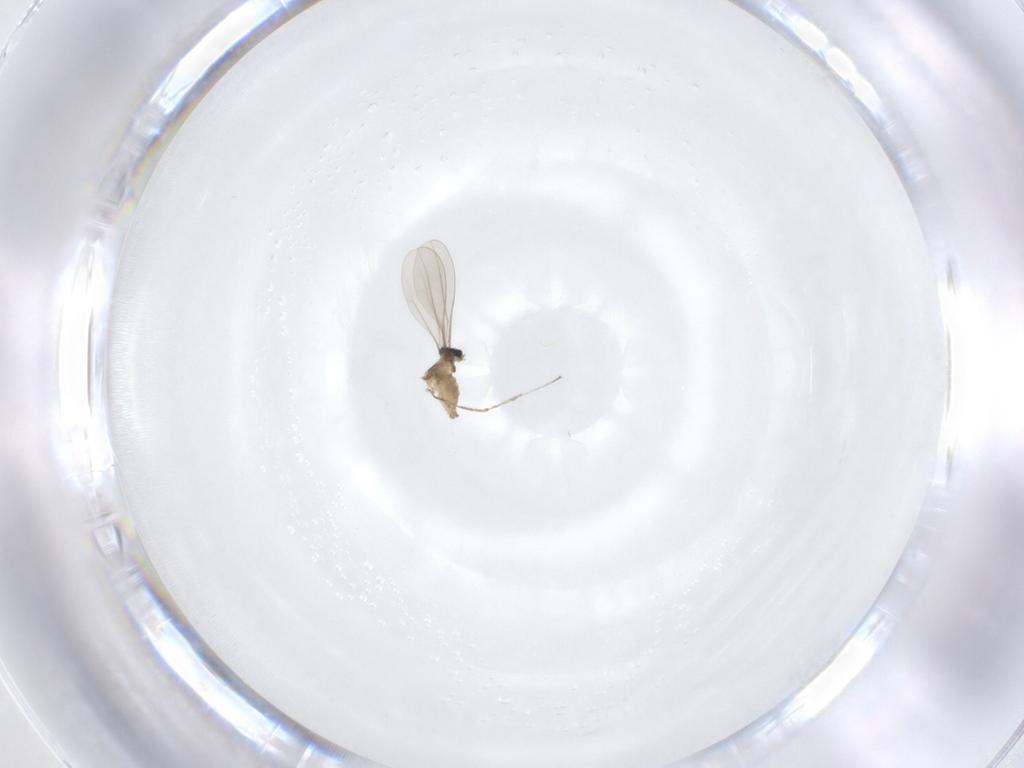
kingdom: Animalia
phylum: Arthropoda
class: Insecta
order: Diptera
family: Cecidomyiidae
